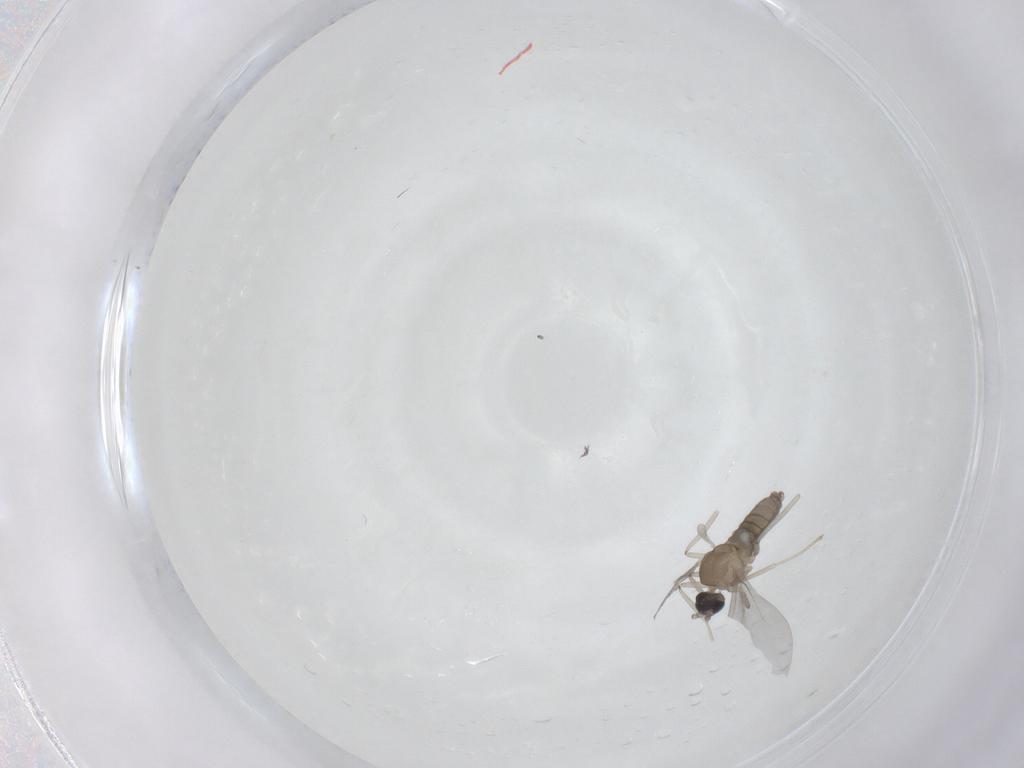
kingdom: Animalia
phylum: Arthropoda
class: Insecta
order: Diptera
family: Cecidomyiidae
